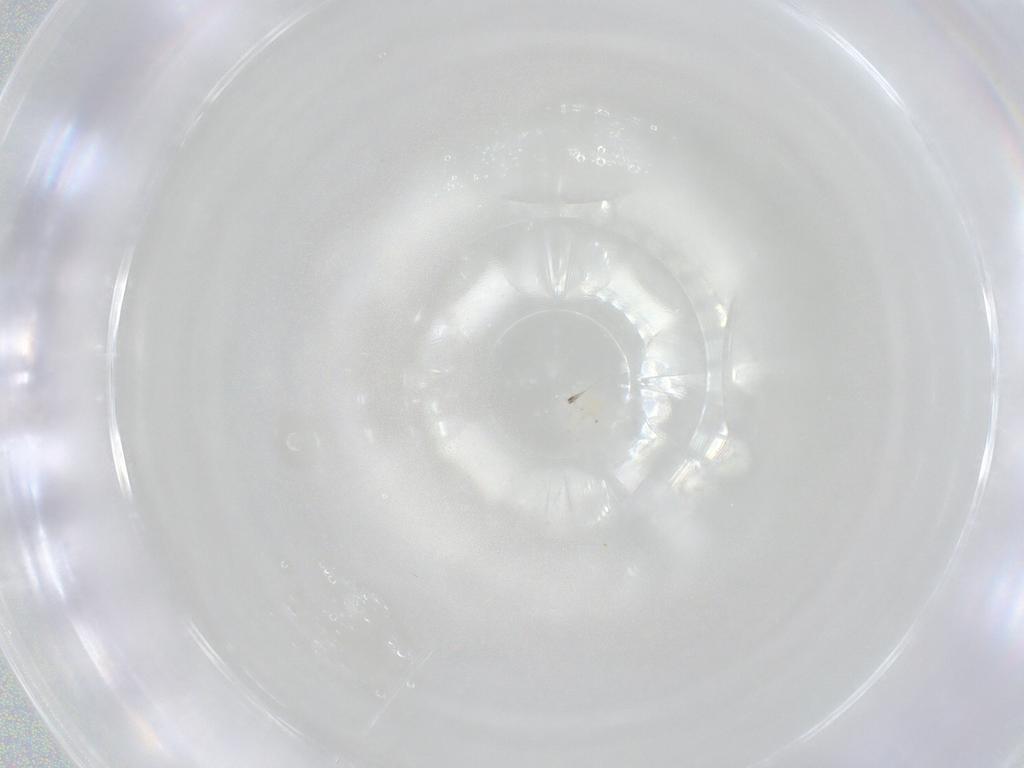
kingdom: Animalia
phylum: Arthropoda
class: Arachnida
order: Trombidiformes
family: Anystidae
